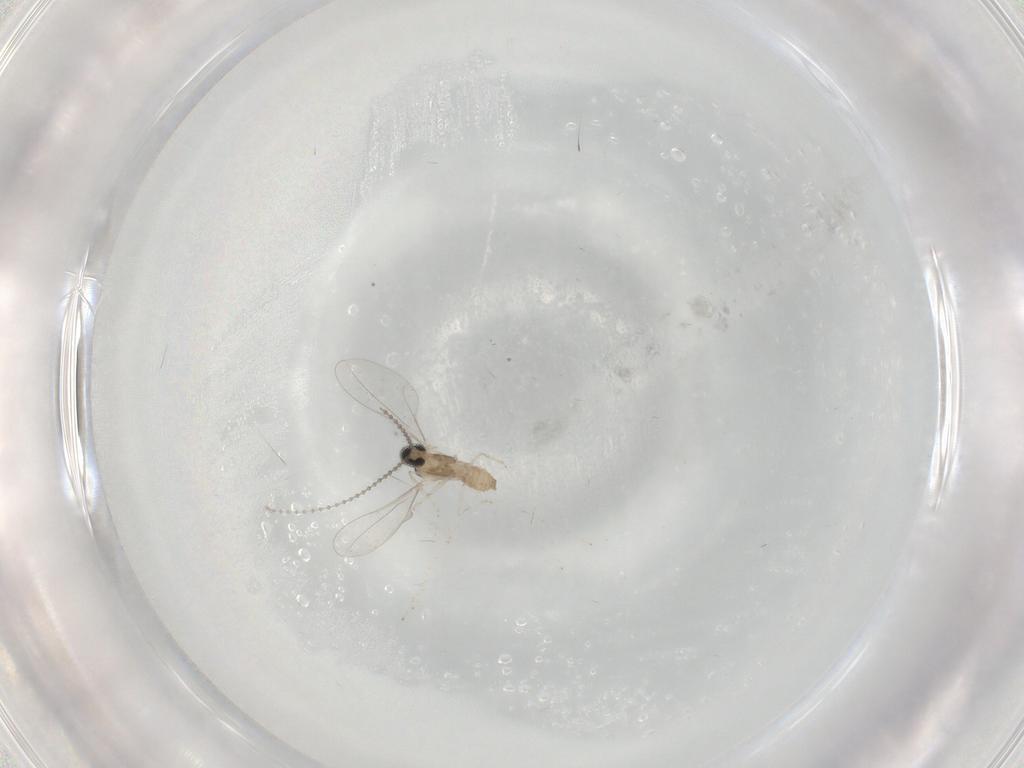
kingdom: Animalia
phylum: Arthropoda
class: Insecta
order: Diptera
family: Cecidomyiidae
